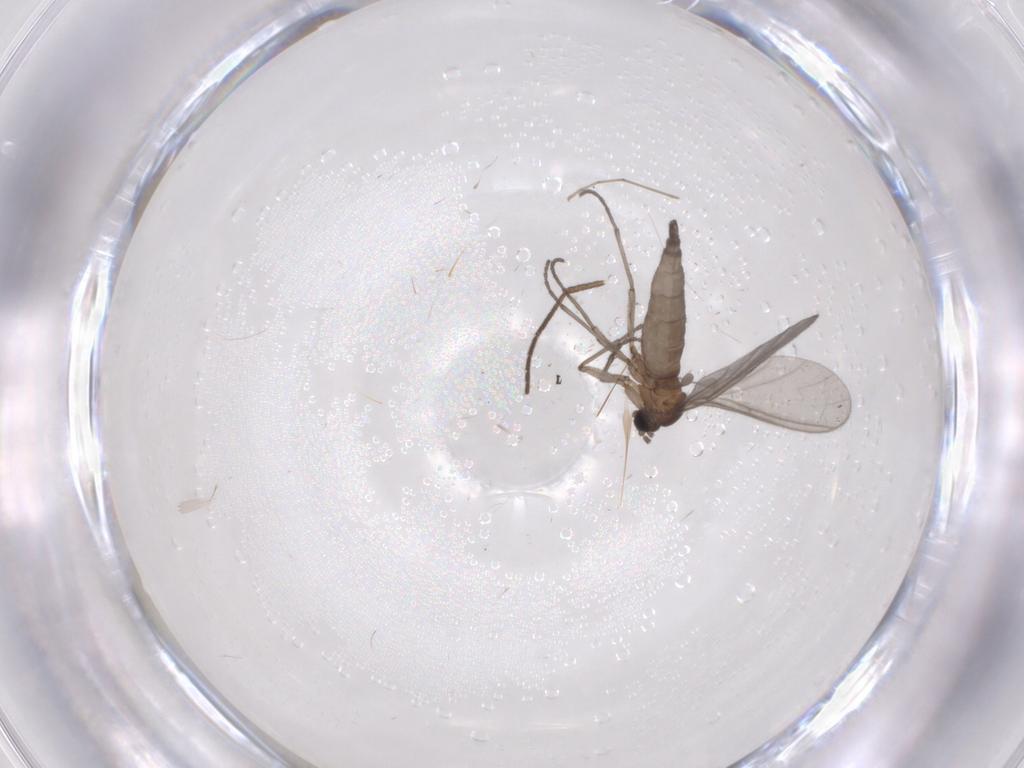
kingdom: Animalia
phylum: Arthropoda
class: Insecta
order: Diptera
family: Sciaridae
